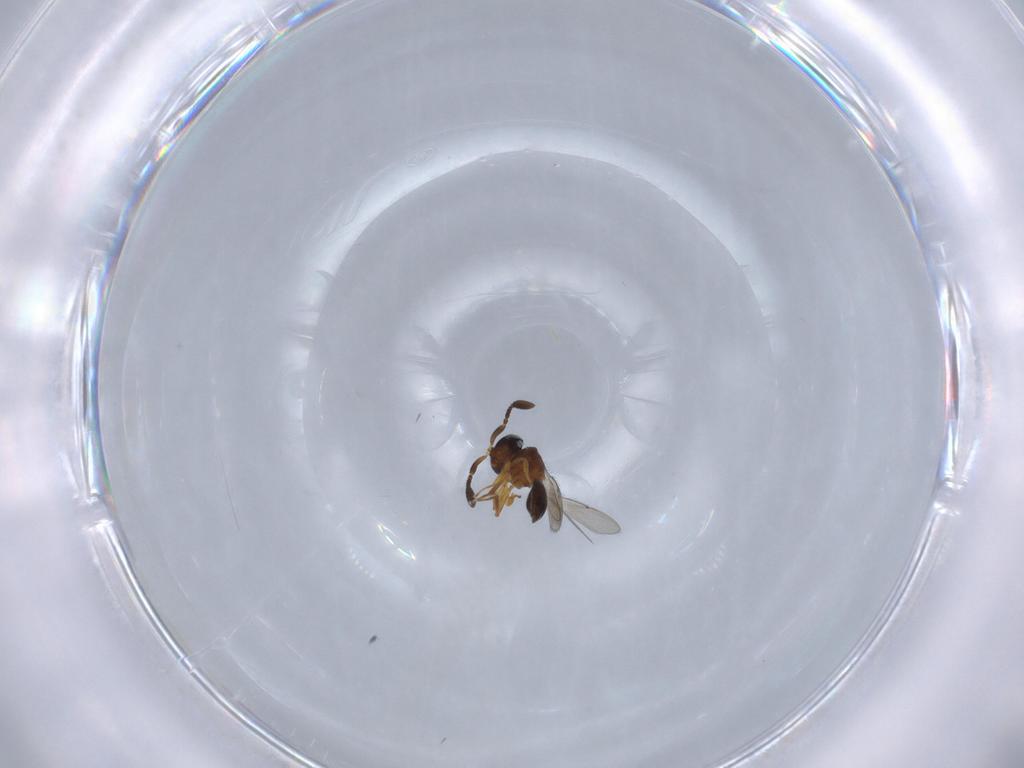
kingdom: Animalia
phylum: Arthropoda
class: Insecta
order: Hymenoptera
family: Scelionidae
